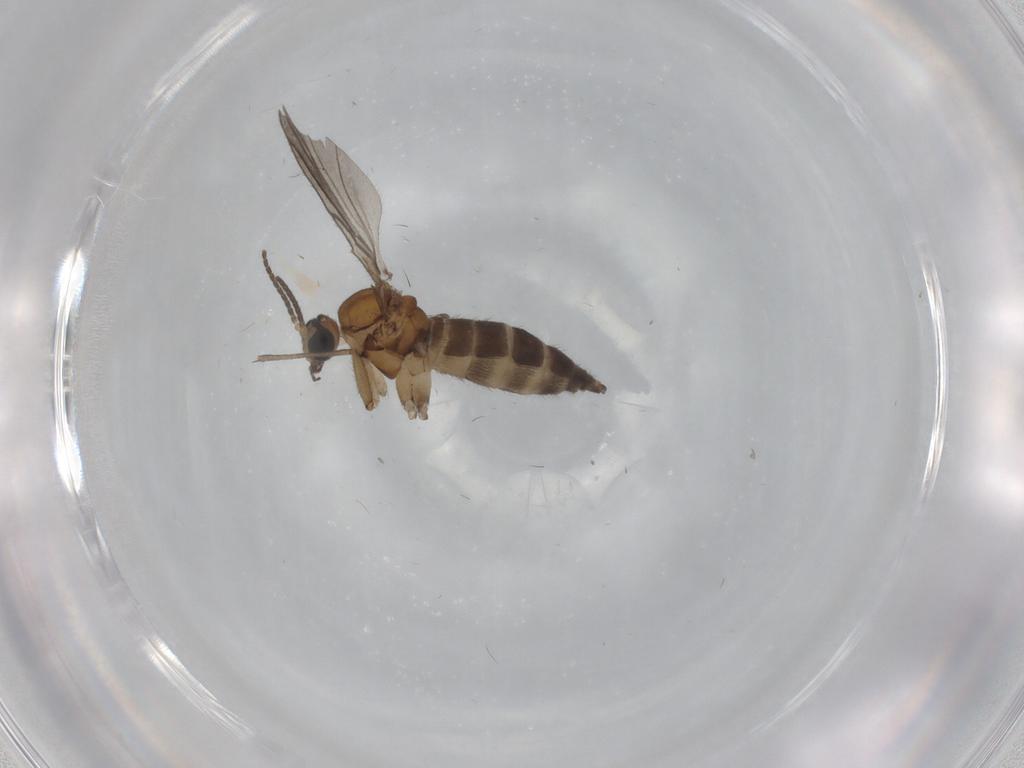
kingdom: Animalia
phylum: Arthropoda
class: Insecta
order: Diptera
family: Sciaridae
